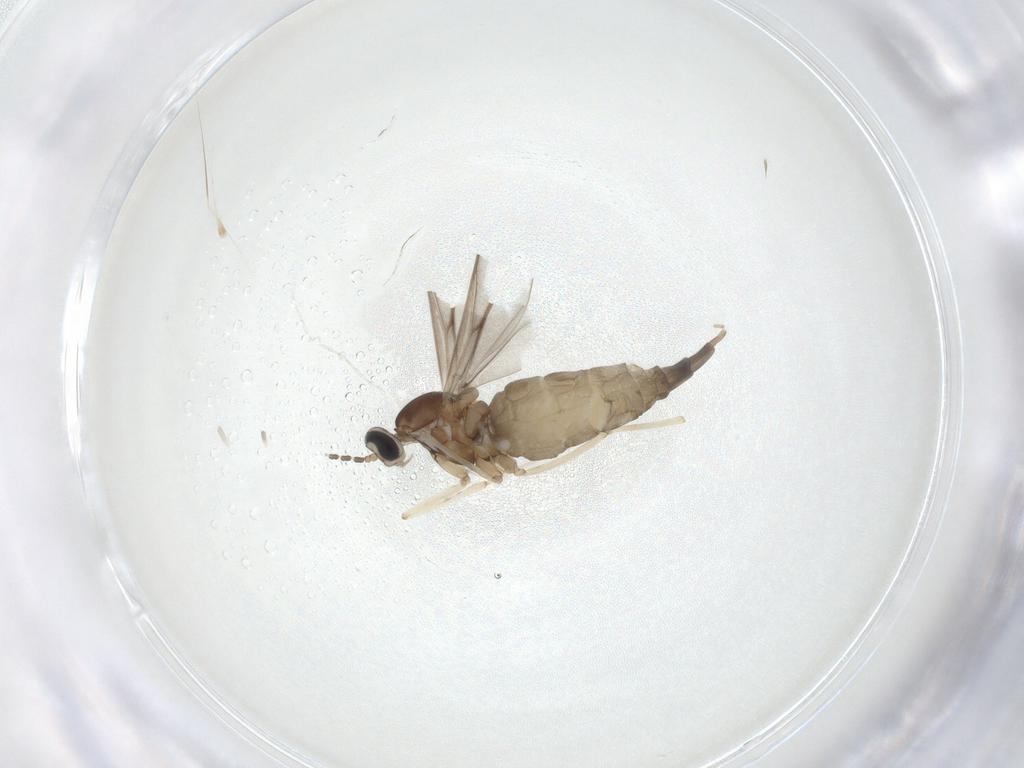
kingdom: Animalia
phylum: Arthropoda
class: Insecta
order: Diptera
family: Cecidomyiidae
